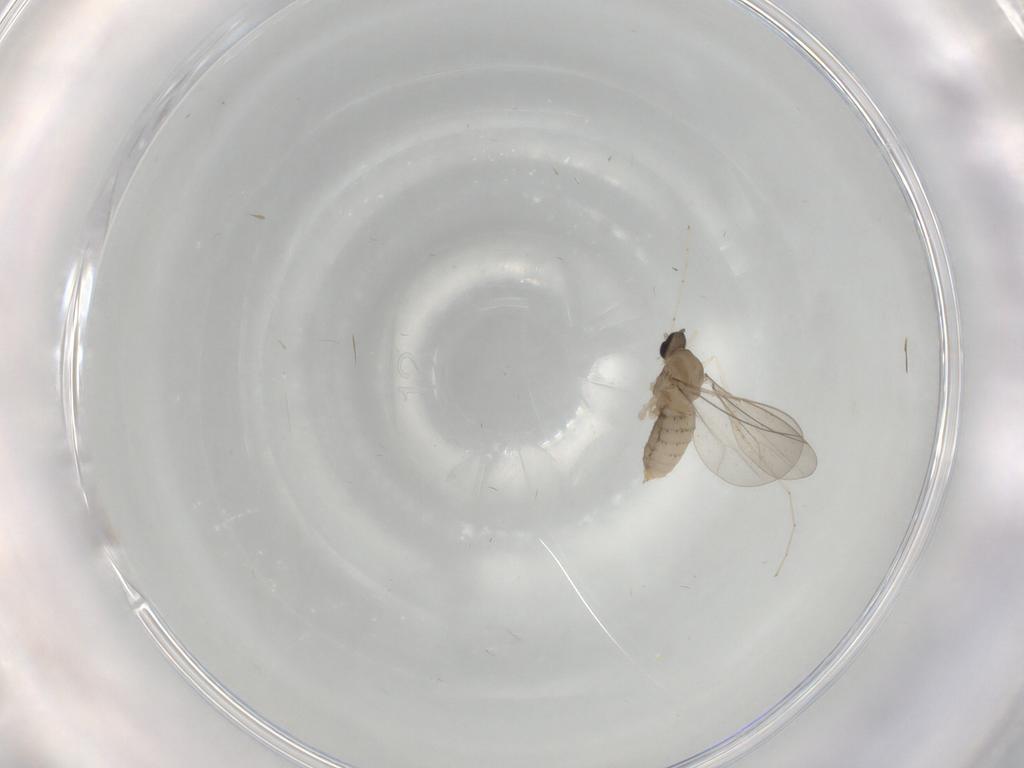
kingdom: Animalia
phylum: Arthropoda
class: Insecta
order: Diptera
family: Cecidomyiidae
